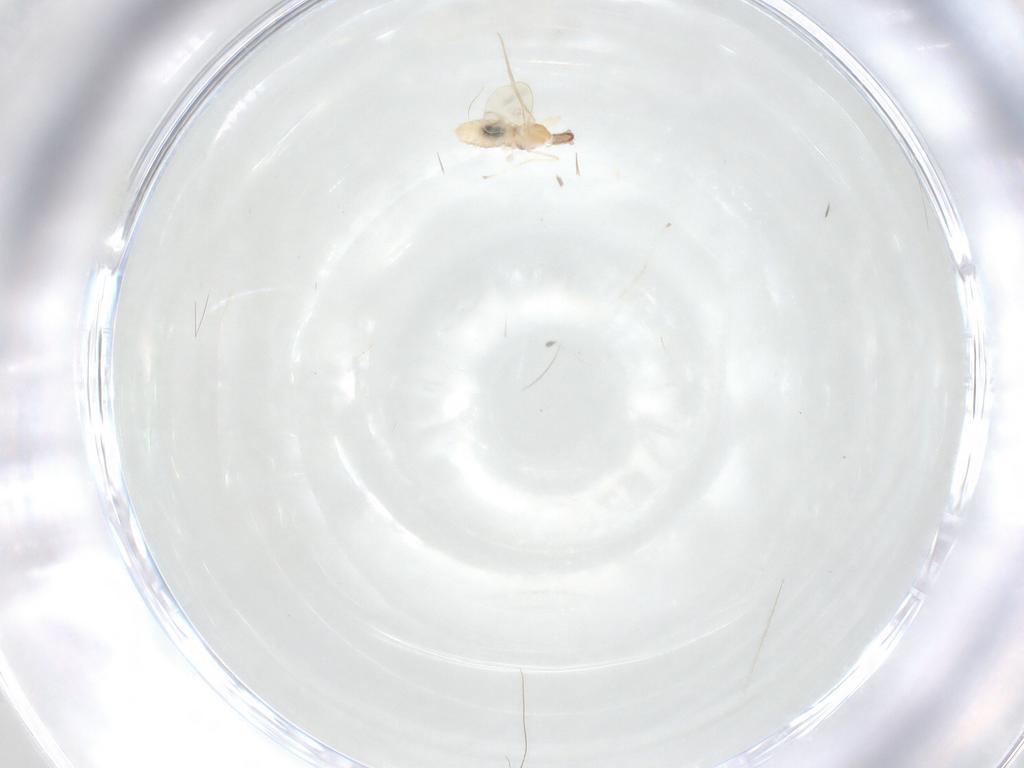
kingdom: Animalia
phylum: Arthropoda
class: Insecta
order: Diptera
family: Cecidomyiidae
